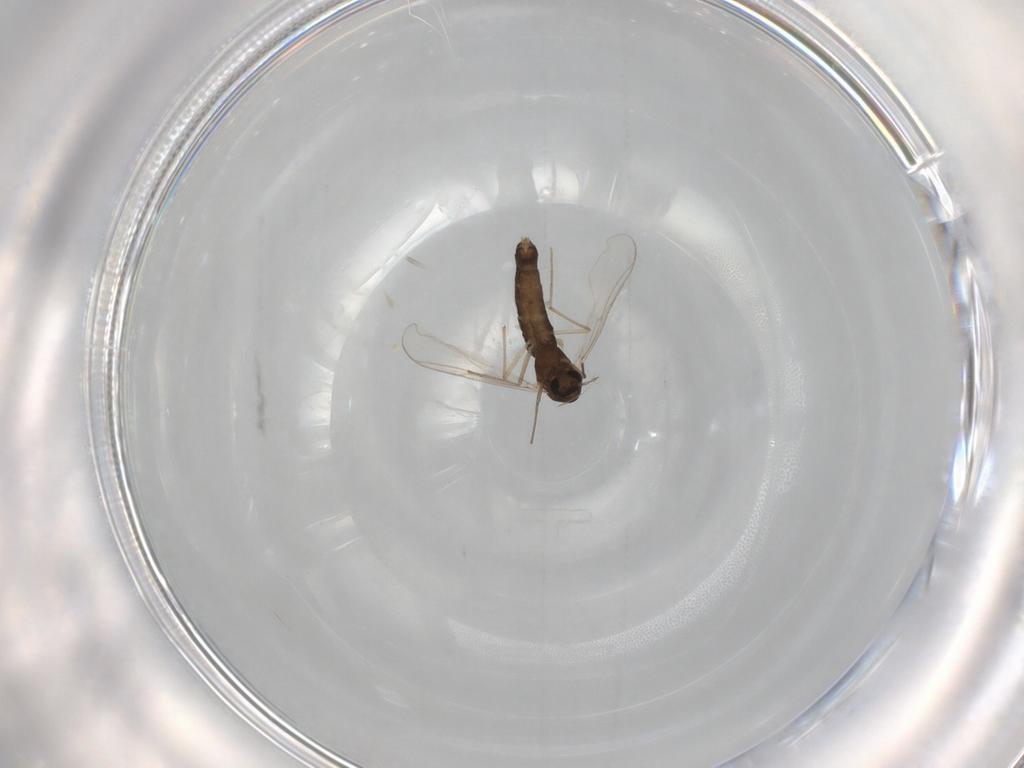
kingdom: Animalia
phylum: Arthropoda
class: Insecta
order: Diptera
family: Chironomidae
